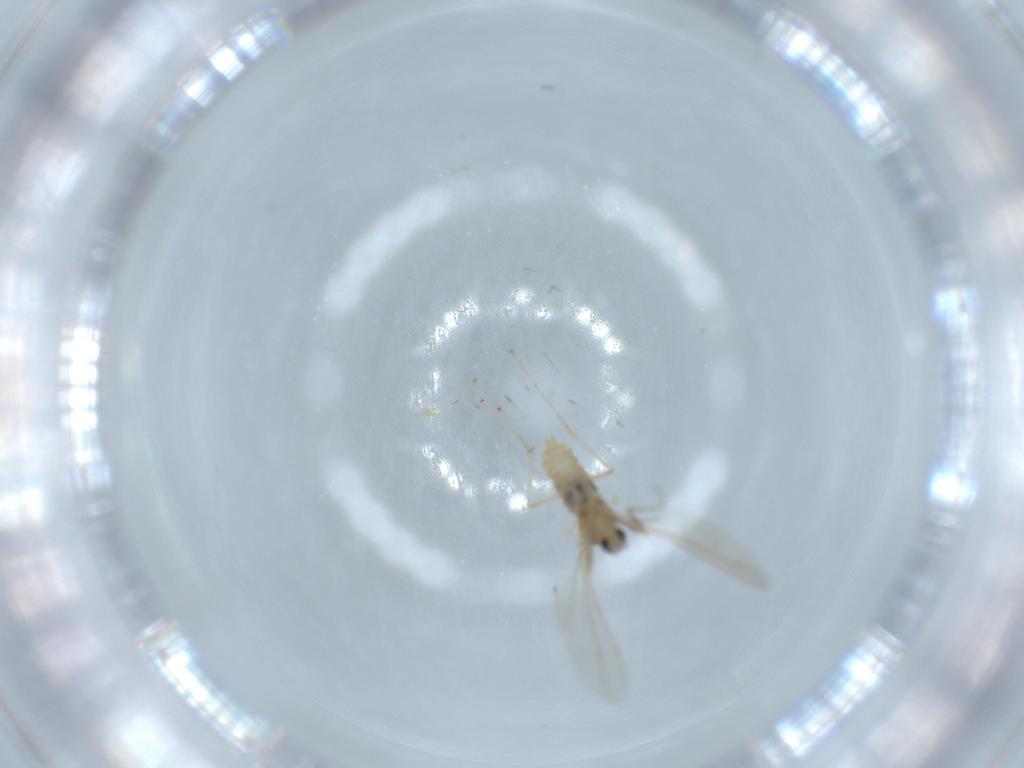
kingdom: Animalia
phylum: Arthropoda
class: Insecta
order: Diptera
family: Cecidomyiidae
